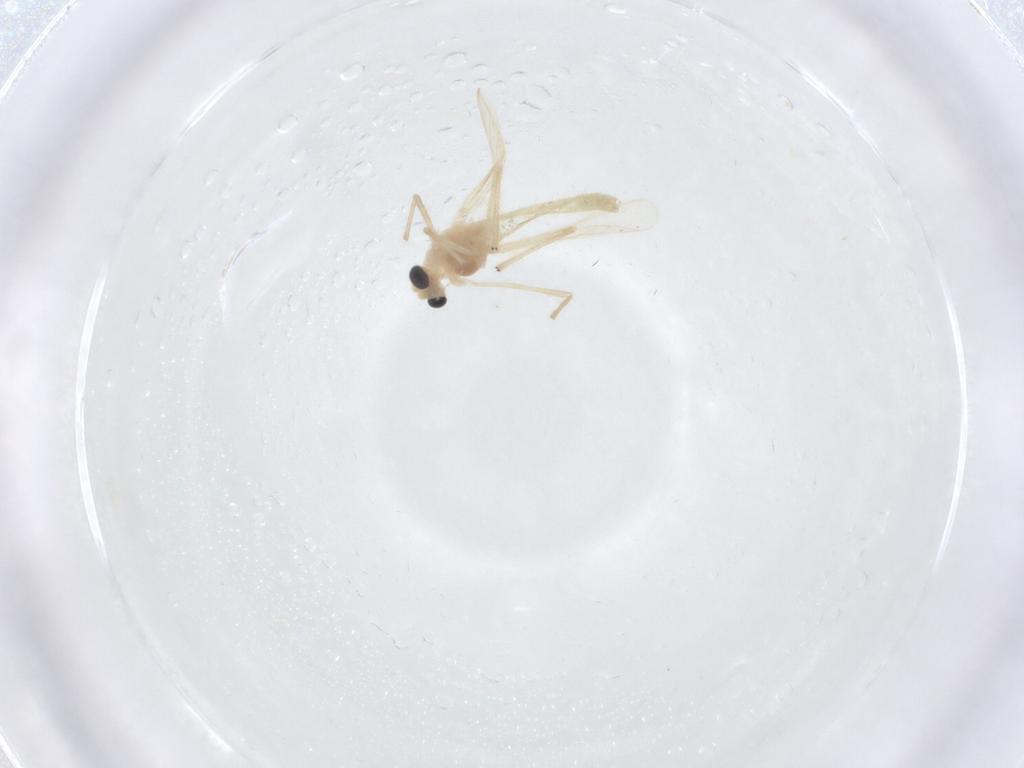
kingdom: Animalia
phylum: Arthropoda
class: Insecta
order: Diptera
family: Chironomidae
